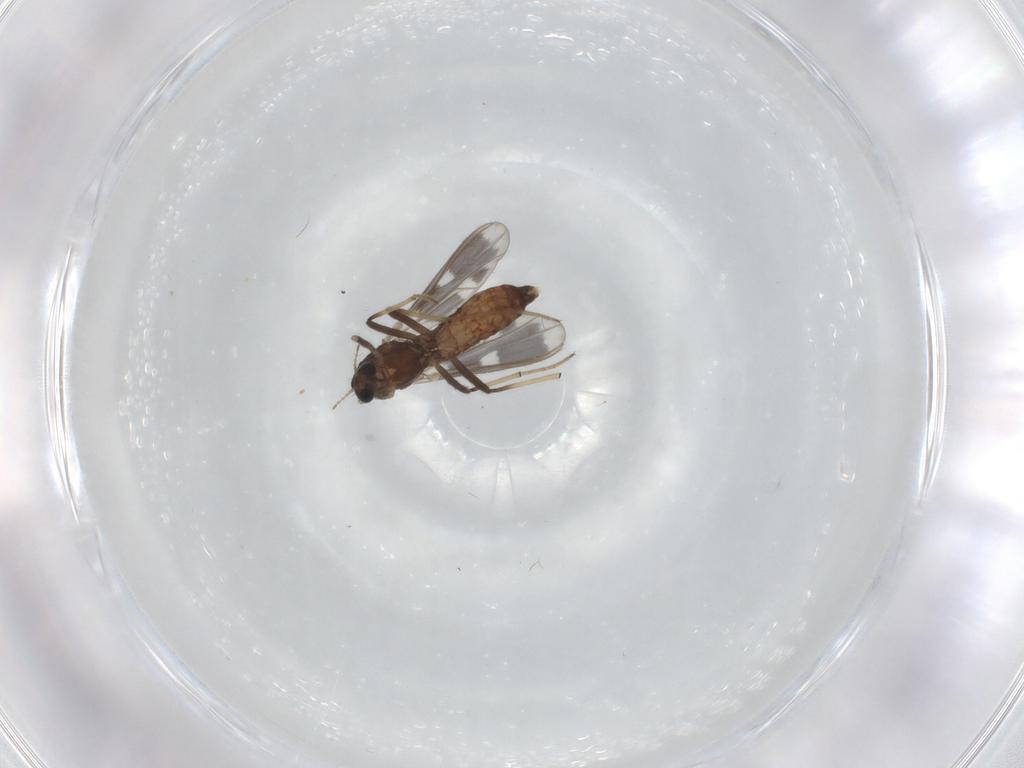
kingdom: Animalia
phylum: Arthropoda
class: Insecta
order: Diptera
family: Chironomidae
